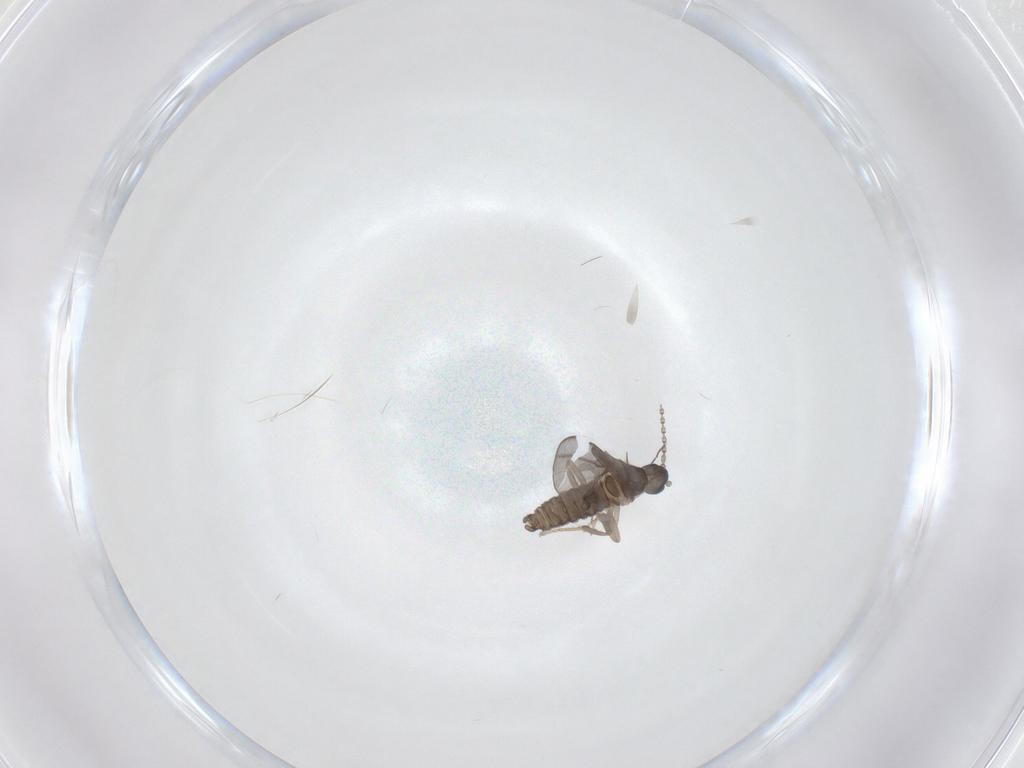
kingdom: Animalia
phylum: Arthropoda
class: Insecta
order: Diptera
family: Cecidomyiidae
